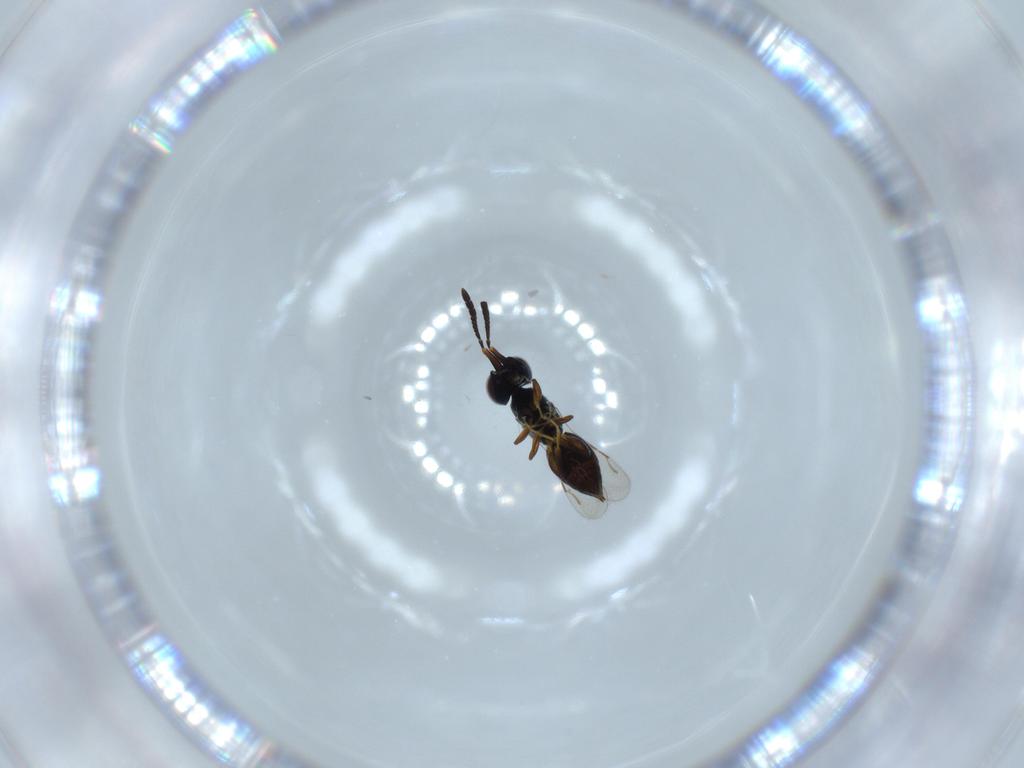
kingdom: Animalia
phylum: Arthropoda
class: Insecta
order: Hymenoptera
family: Ceraphronidae
